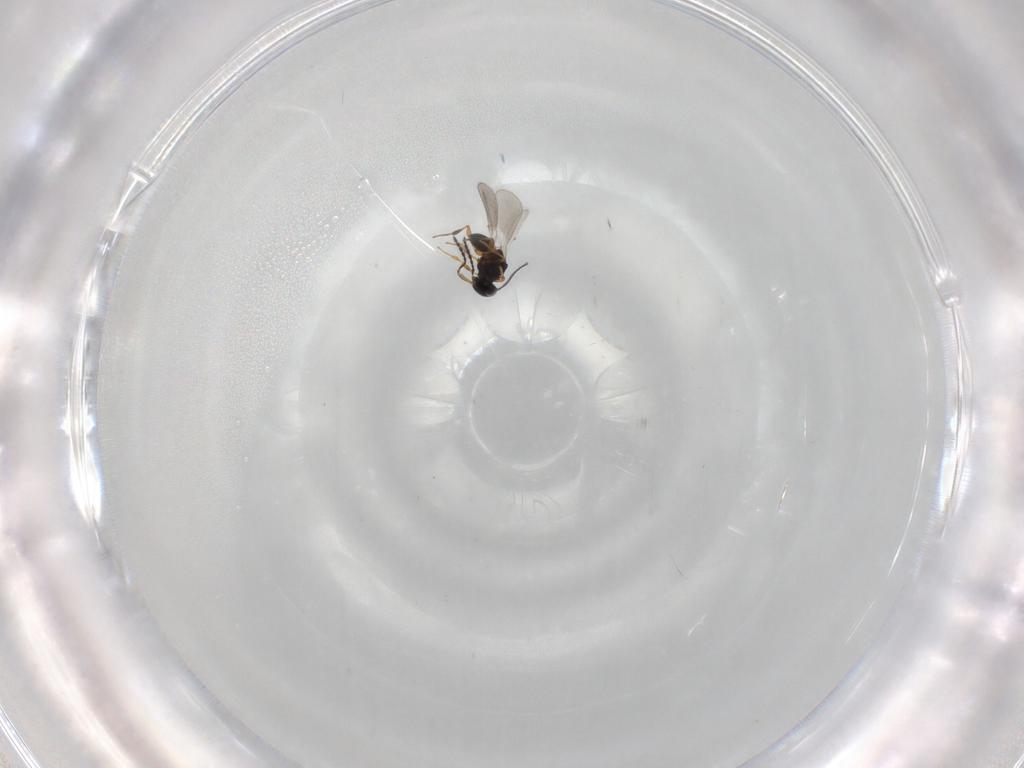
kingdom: Animalia
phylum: Arthropoda
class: Insecta
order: Hymenoptera
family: Platygastridae
